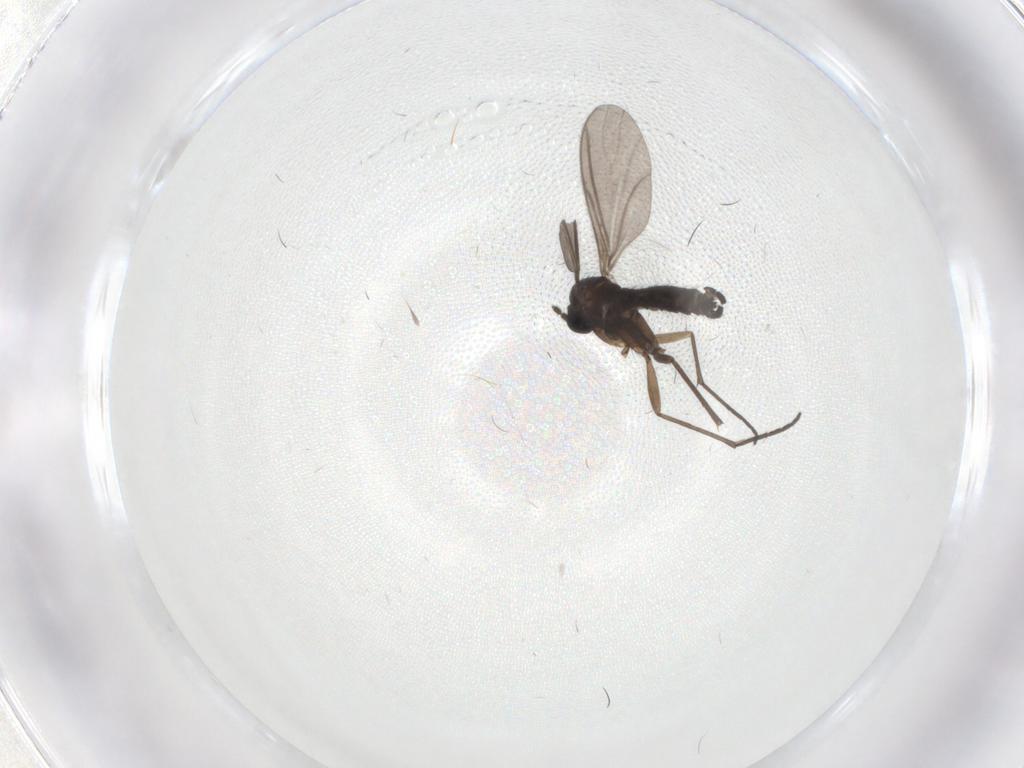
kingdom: Animalia
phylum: Arthropoda
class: Insecta
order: Diptera
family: Sciaridae
